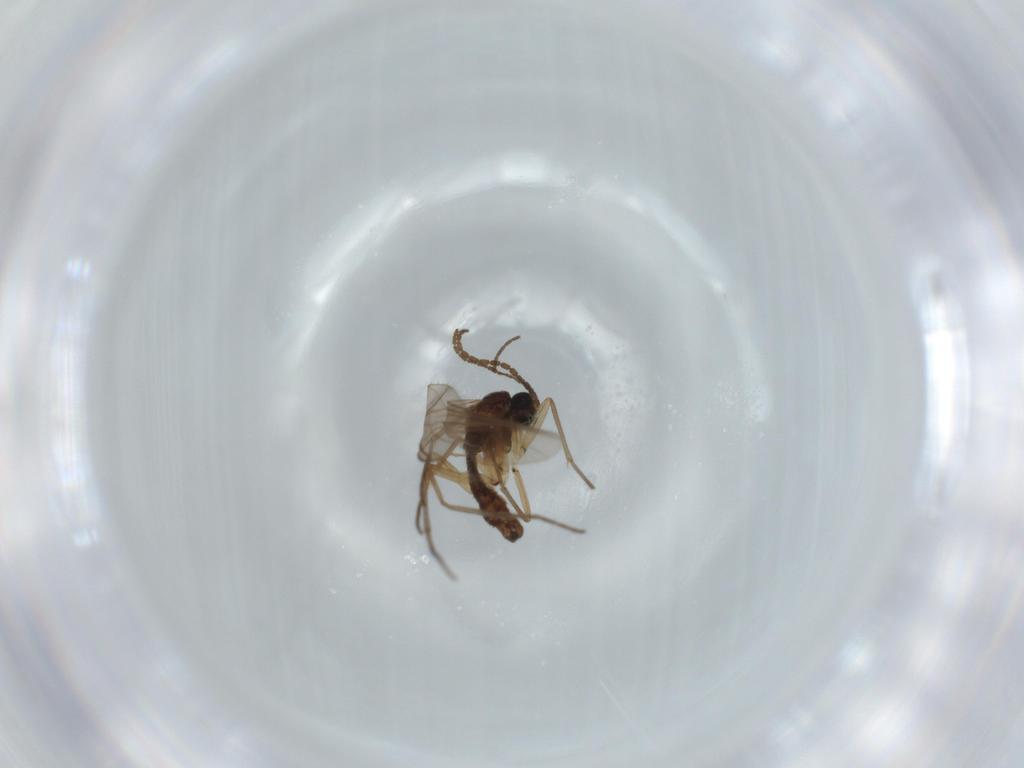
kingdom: Animalia
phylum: Arthropoda
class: Insecta
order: Diptera
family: Sciaridae
